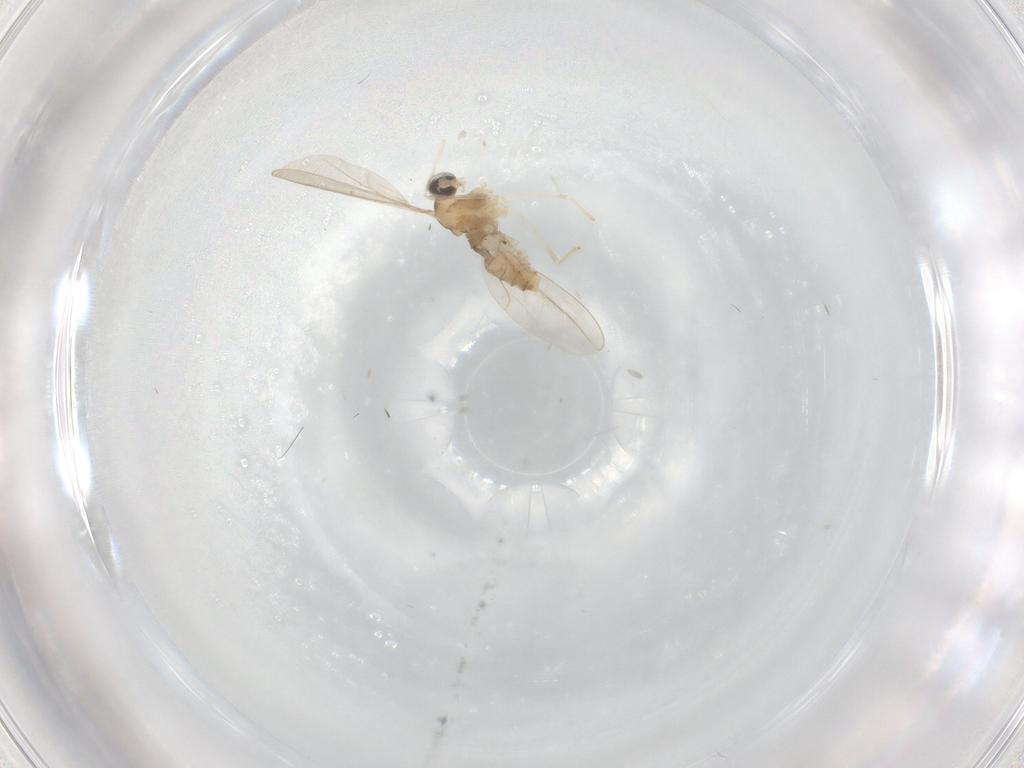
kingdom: Animalia
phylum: Arthropoda
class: Insecta
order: Diptera
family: Cecidomyiidae
